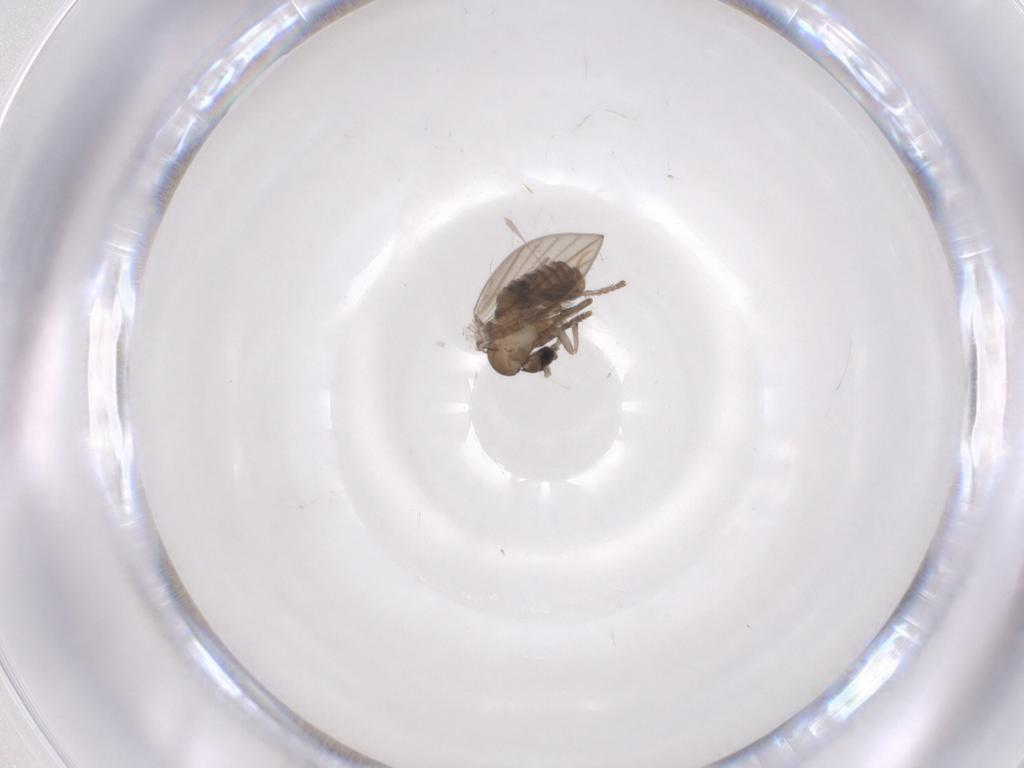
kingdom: Animalia
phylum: Arthropoda
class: Insecta
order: Diptera
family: Psychodidae
